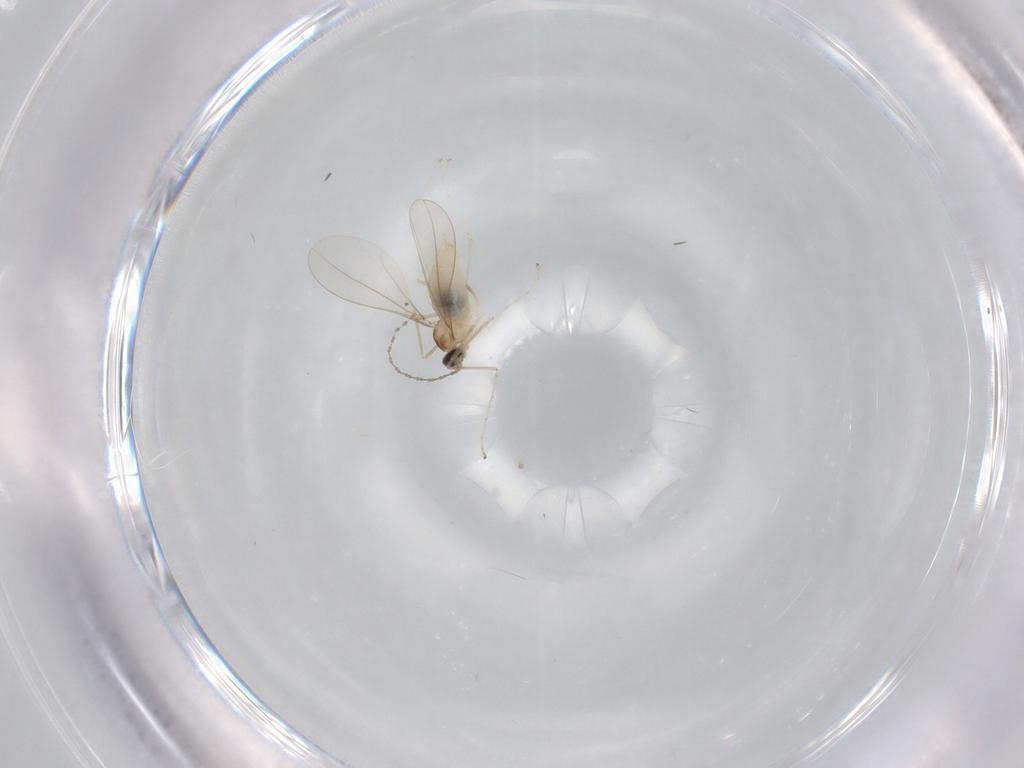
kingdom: Animalia
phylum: Arthropoda
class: Insecta
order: Diptera
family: Cecidomyiidae
